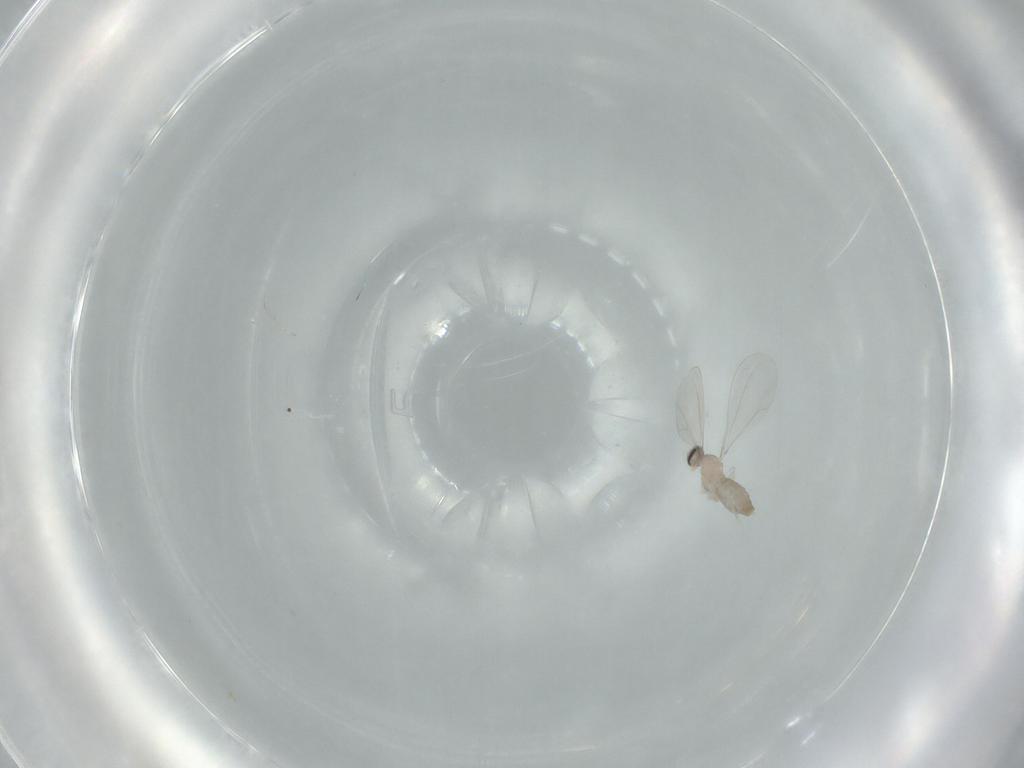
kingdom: Animalia
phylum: Arthropoda
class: Insecta
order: Diptera
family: Cecidomyiidae
